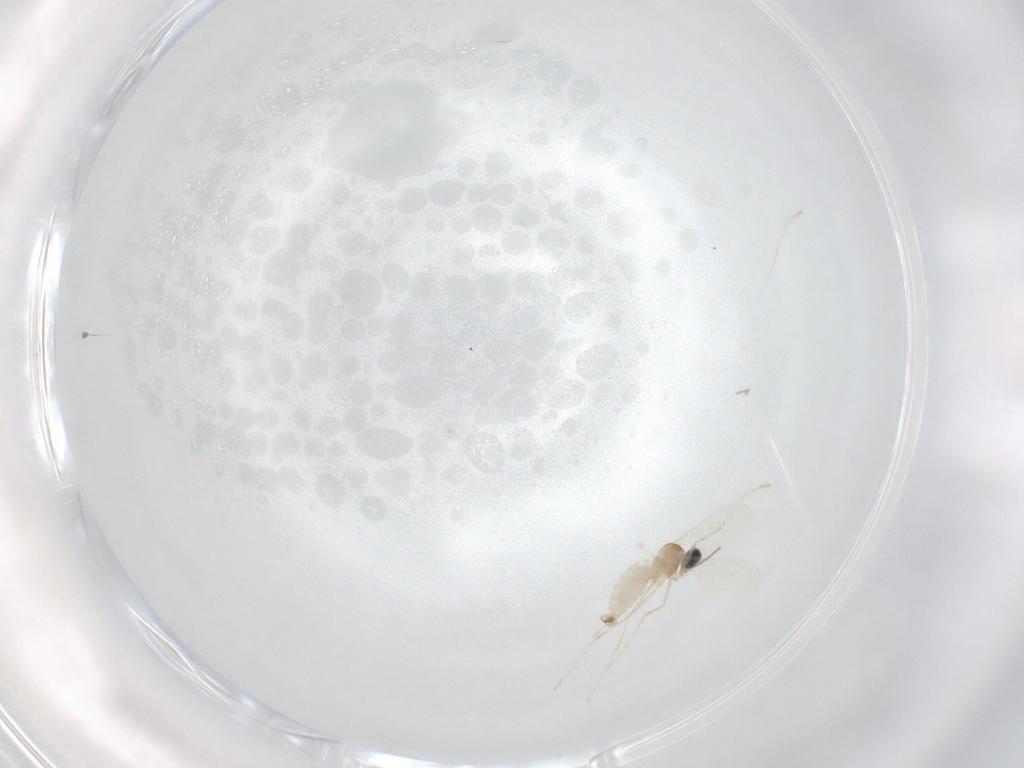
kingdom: Animalia
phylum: Arthropoda
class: Insecta
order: Diptera
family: Cecidomyiidae
